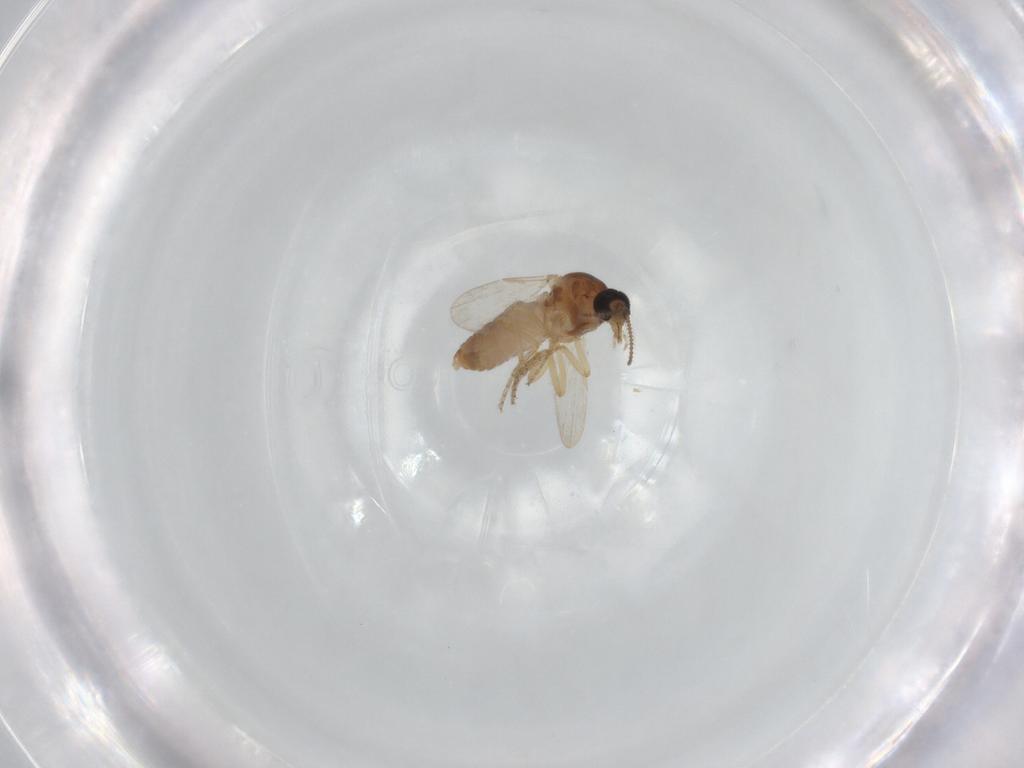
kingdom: Animalia
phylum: Arthropoda
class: Insecta
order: Diptera
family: Ceratopogonidae
